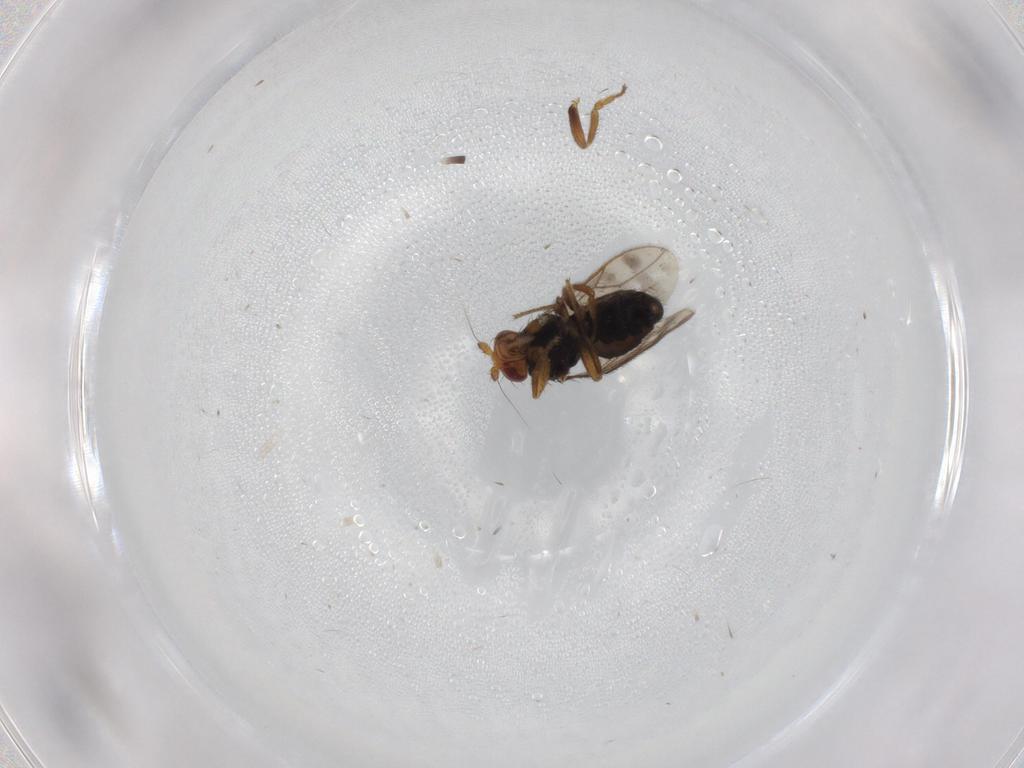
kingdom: Animalia
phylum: Arthropoda
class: Insecta
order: Diptera
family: Sphaeroceridae
